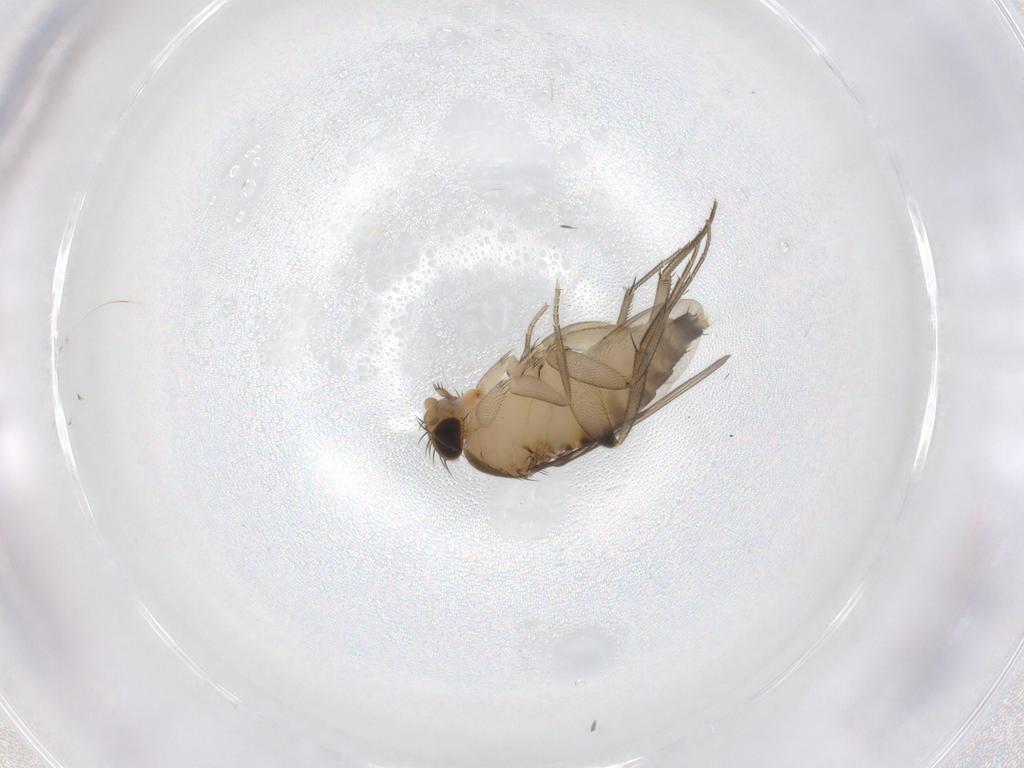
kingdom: Animalia
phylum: Arthropoda
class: Insecta
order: Diptera
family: Phoridae
